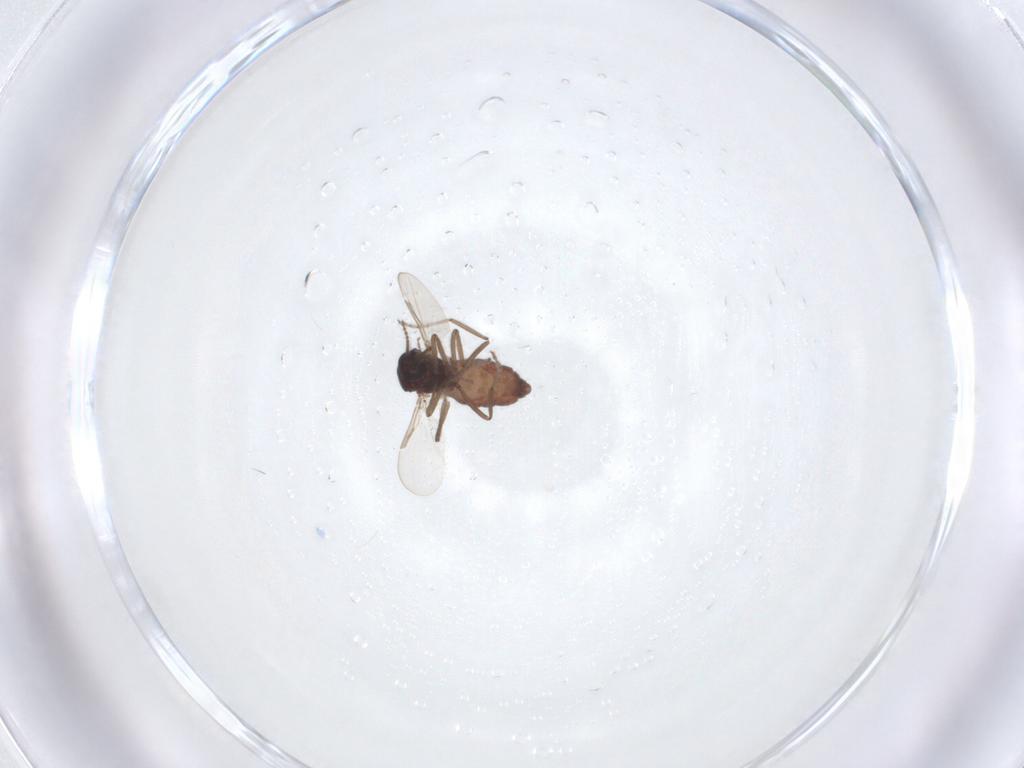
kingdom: Animalia
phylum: Arthropoda
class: Insecta
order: Diptera
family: Ceratopogonidae
